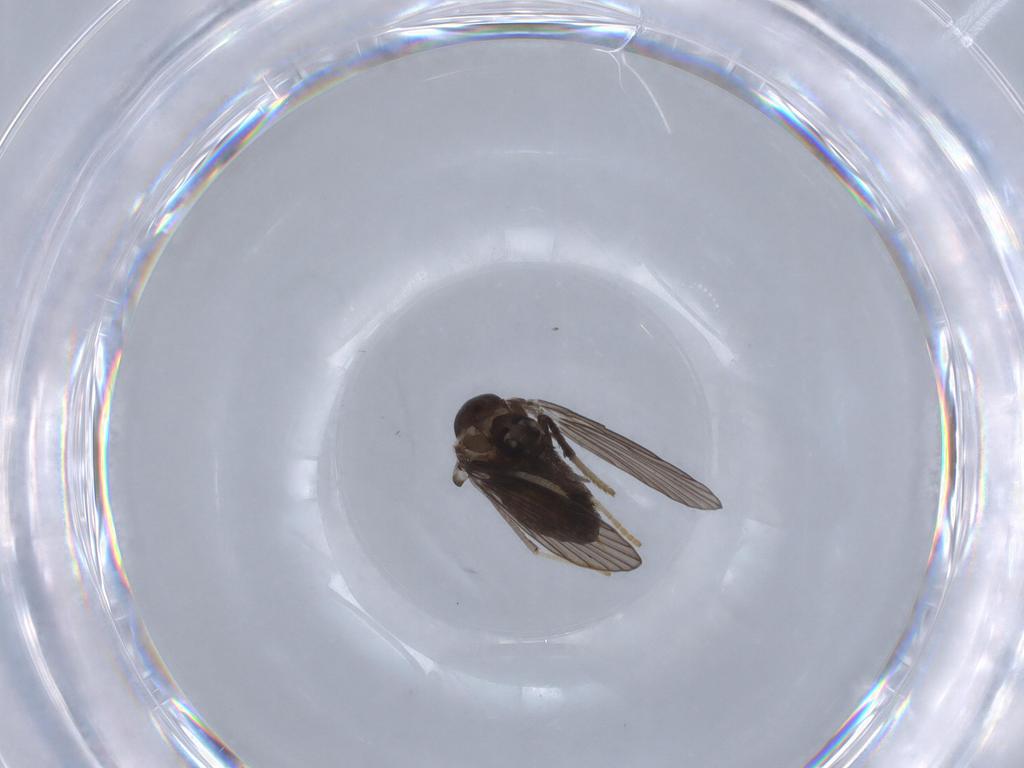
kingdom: Animalia
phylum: Arthropoda
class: Insecta
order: Diptera
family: Psychodidae
